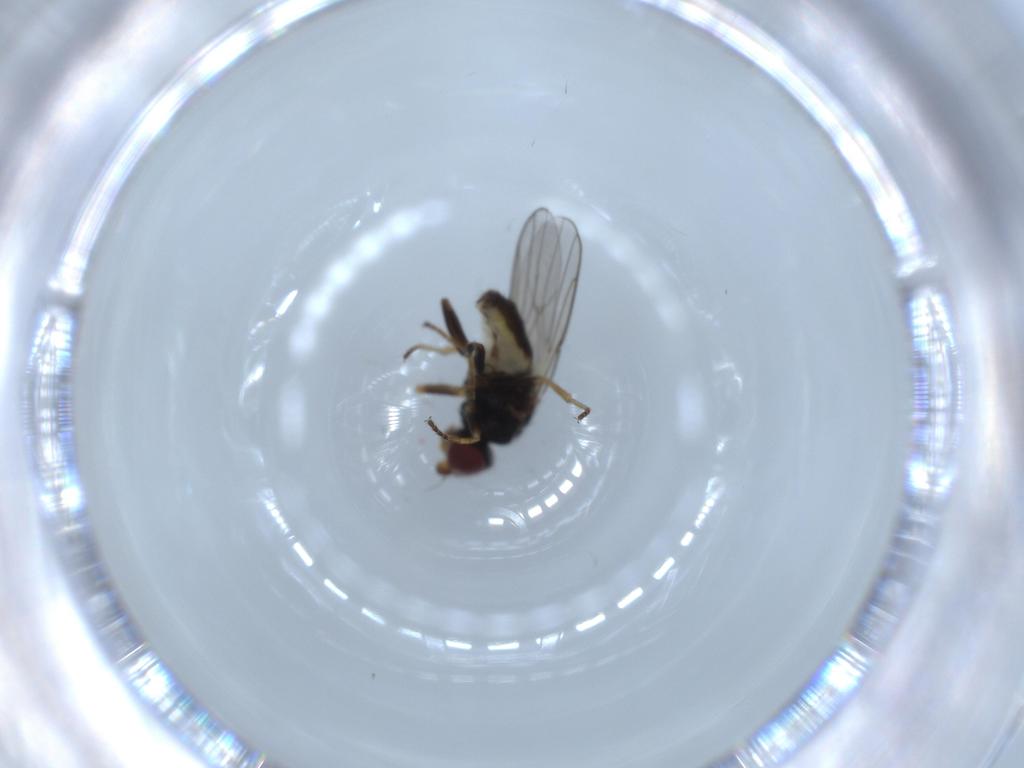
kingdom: Animalia
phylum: Arthropoda
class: Insecta
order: Diptera
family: Chloropidae
